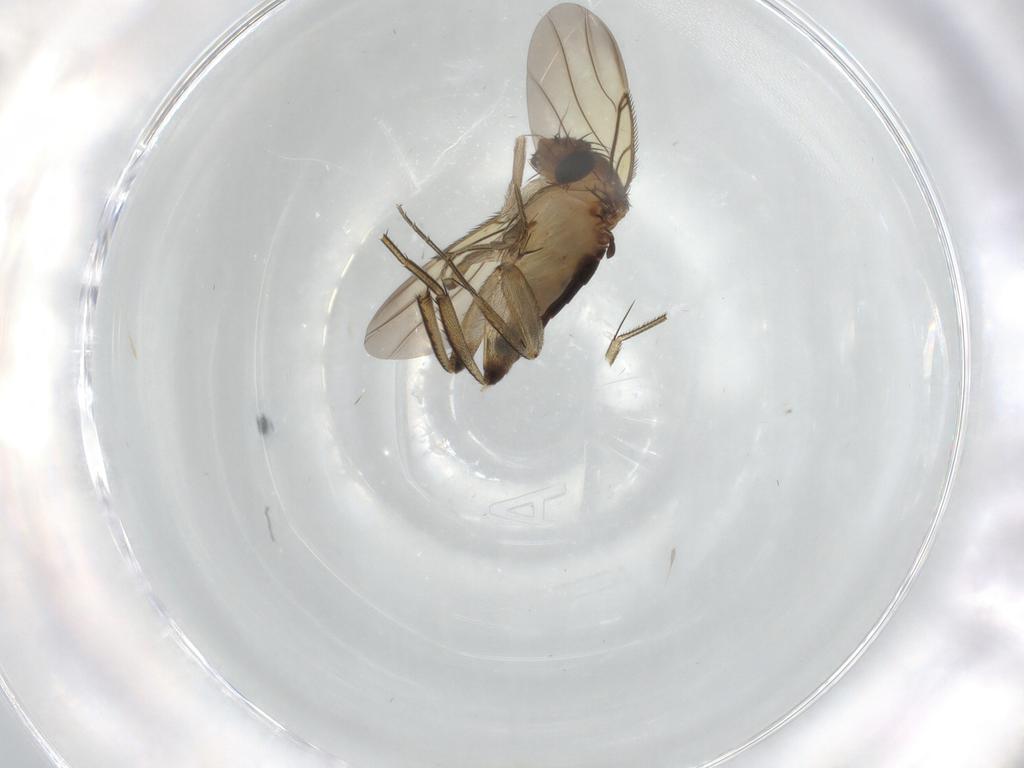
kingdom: Animalia
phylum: Arthropoda
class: Insecta
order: Diptera
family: Phoridae
